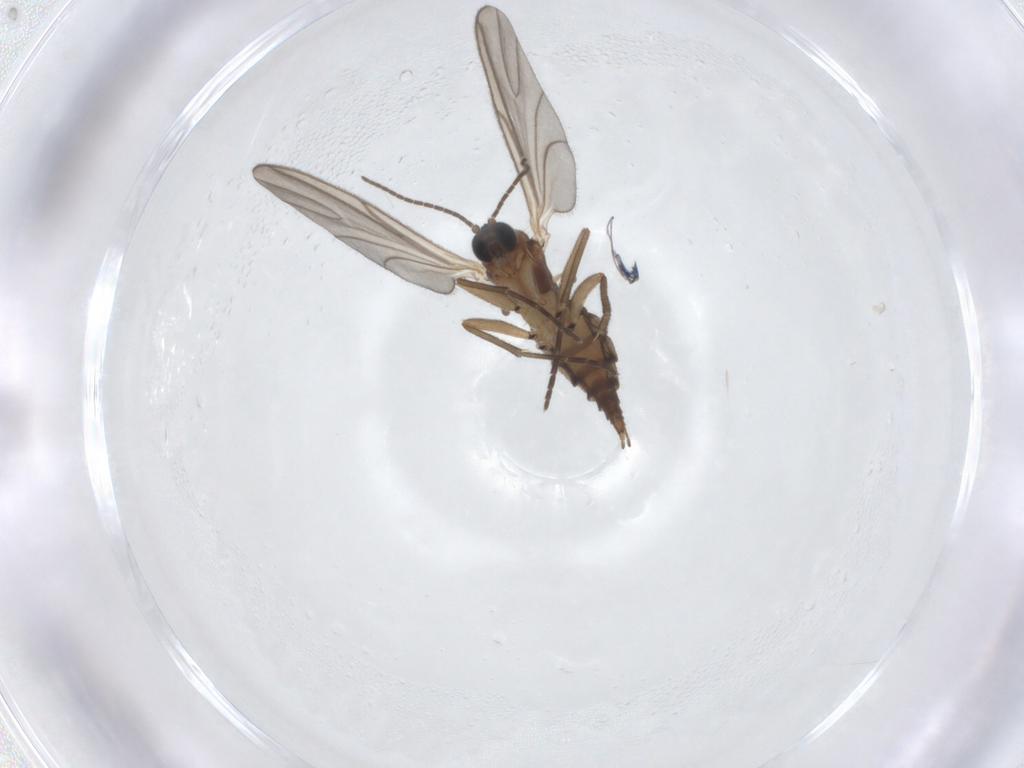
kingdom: Animalia
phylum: Arthropoda
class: Insecta
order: Diptera
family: Sciaridae
